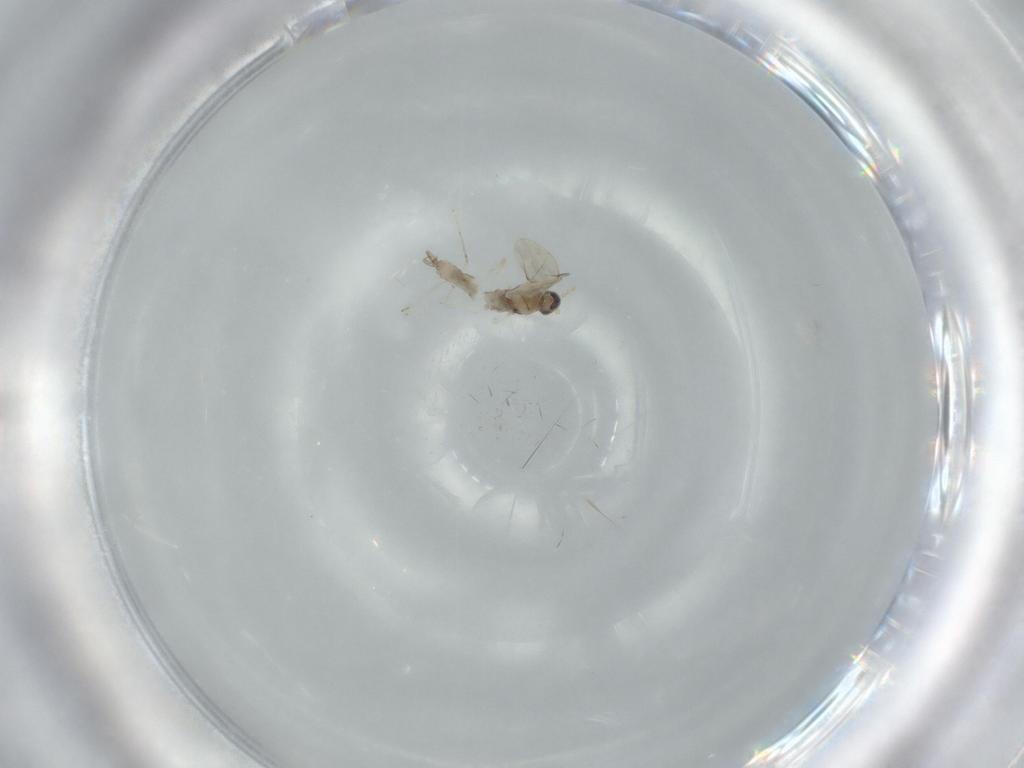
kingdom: Animalia
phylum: Arthropoda
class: Insecta
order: Diptera
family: Cecidomyiidae
